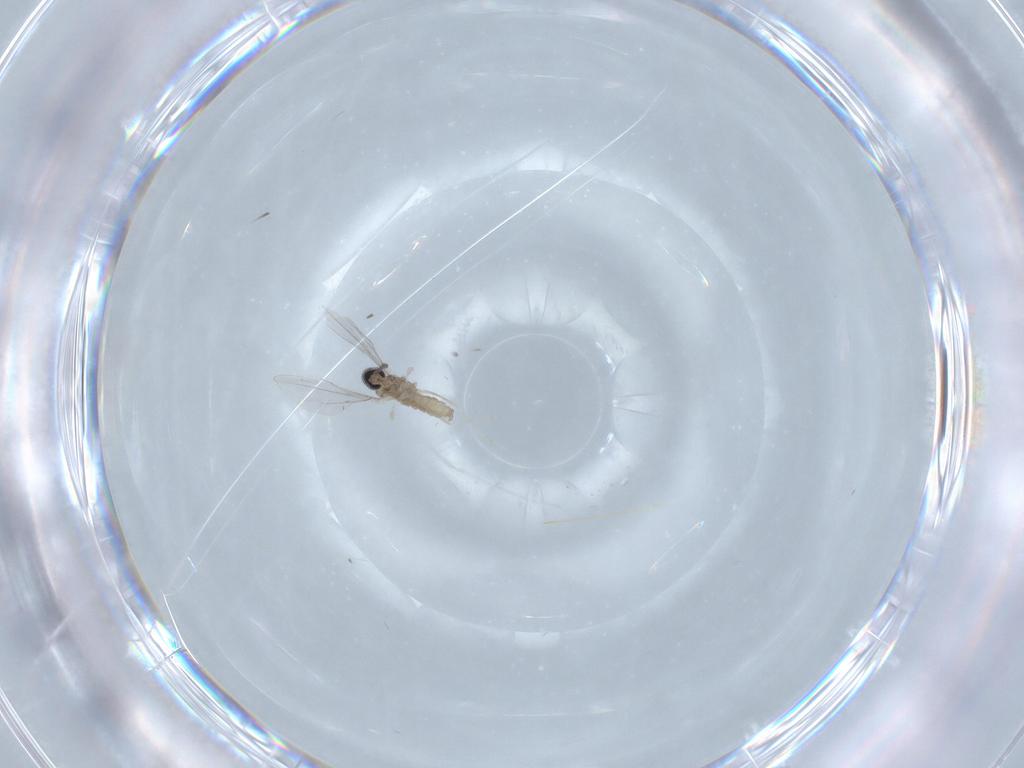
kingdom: Animalia
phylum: Arthropoda
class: Insecta
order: Diptera
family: Cecidomyiidae
